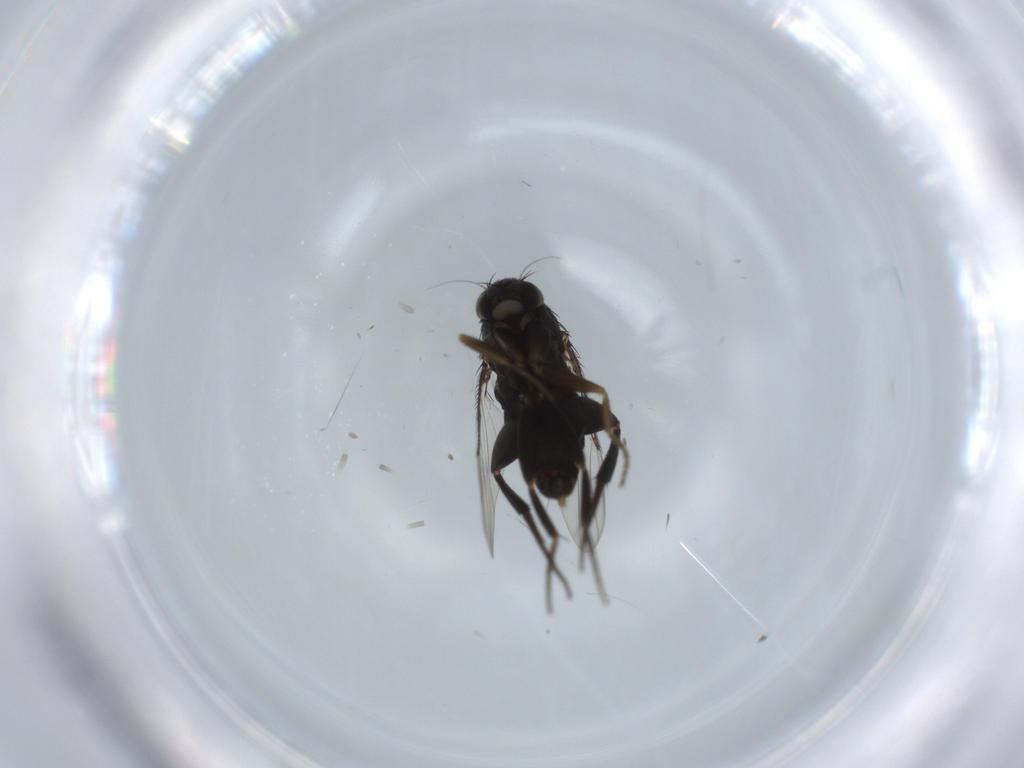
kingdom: Animalia
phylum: Arthropoda
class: Insecta
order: Diptera
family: Phoridae
